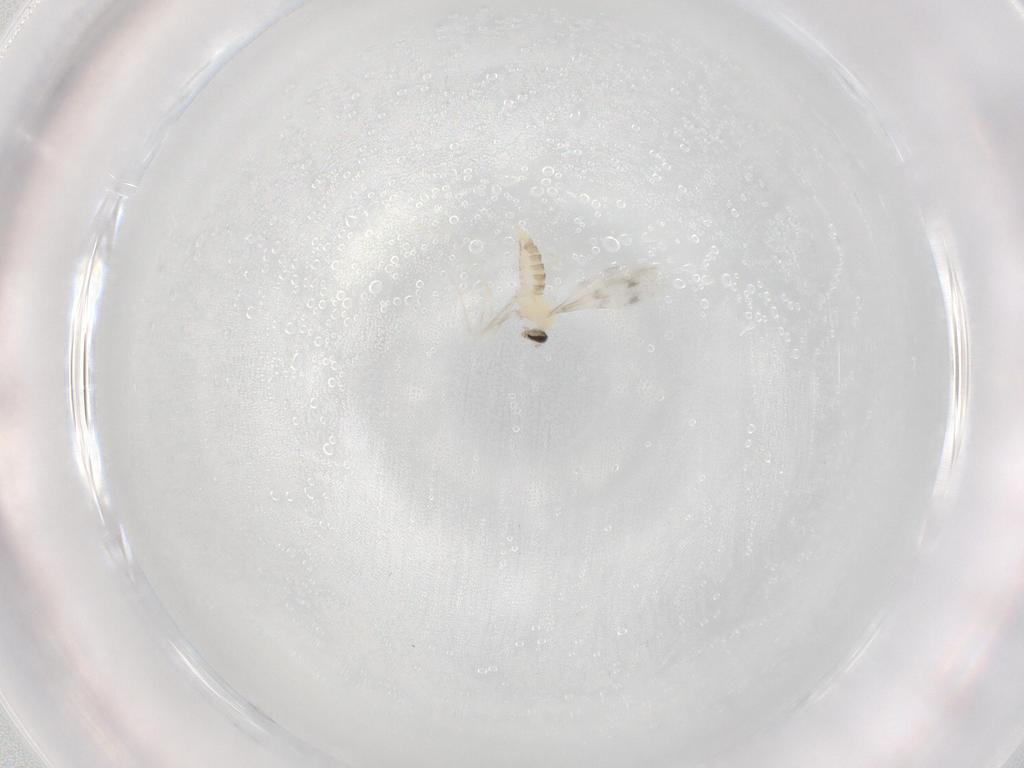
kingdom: Animalia
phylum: Arthropoda
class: Insecta
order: Diptera
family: Cecidomyiidae
